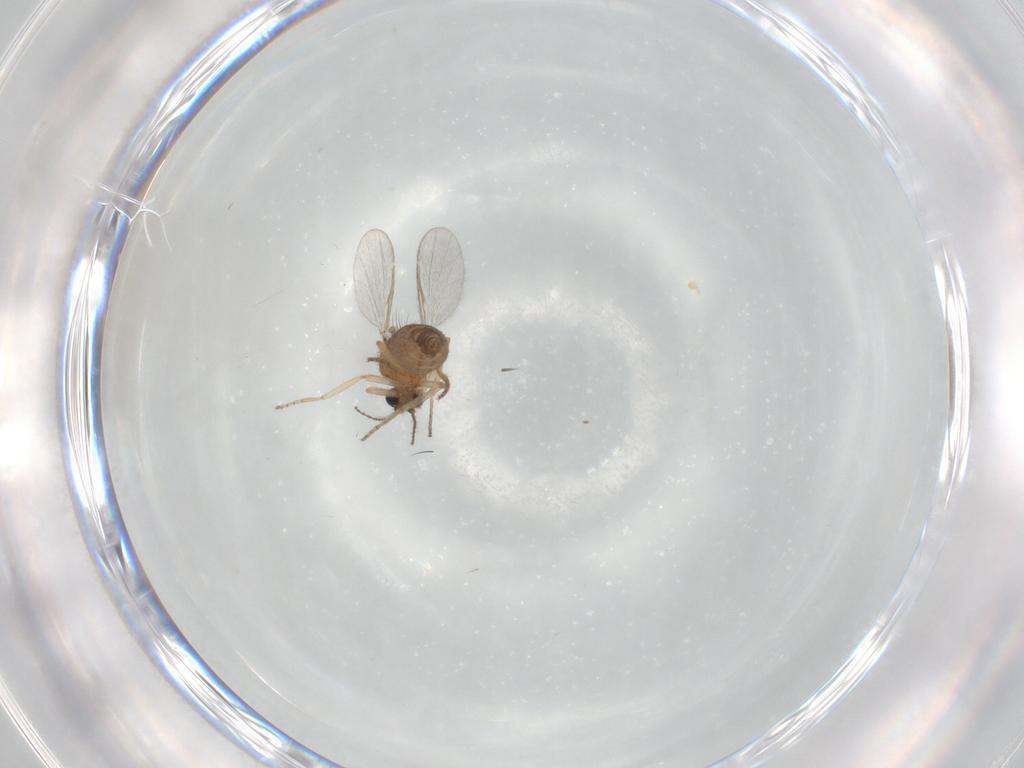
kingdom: Animalia
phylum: Arthropoda
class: Insecta
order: Diptera
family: Ceratopogonidae
